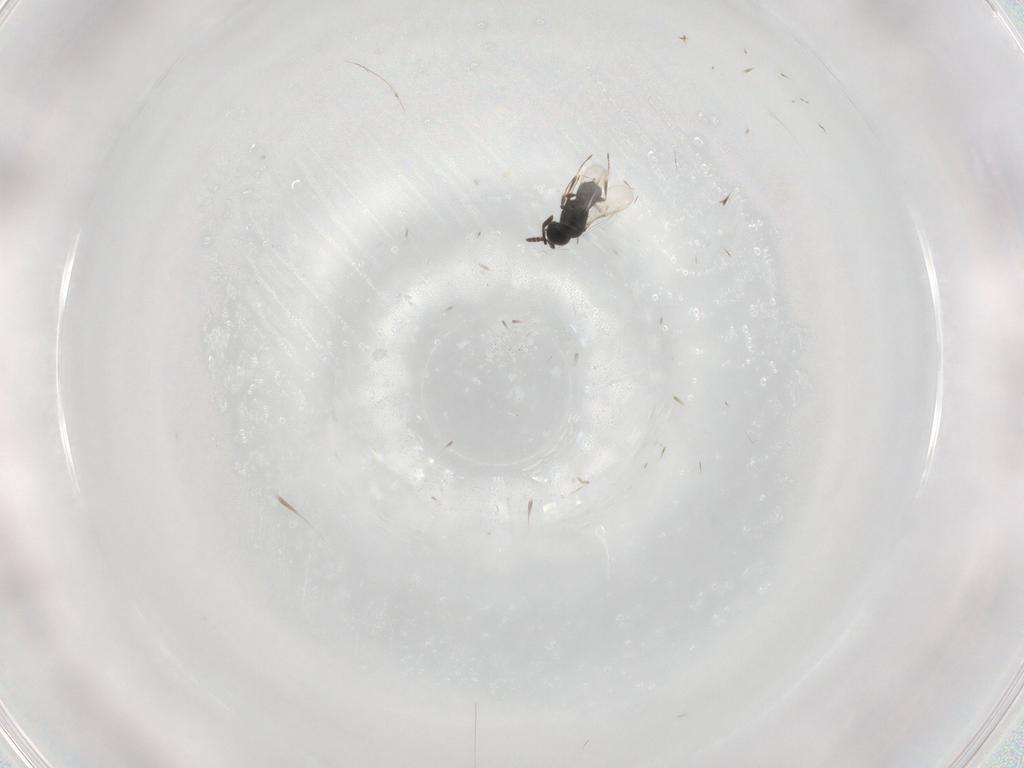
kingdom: Animalia
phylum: Arthropoda
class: Insecta
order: Hymenoptera
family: Scelionidae
